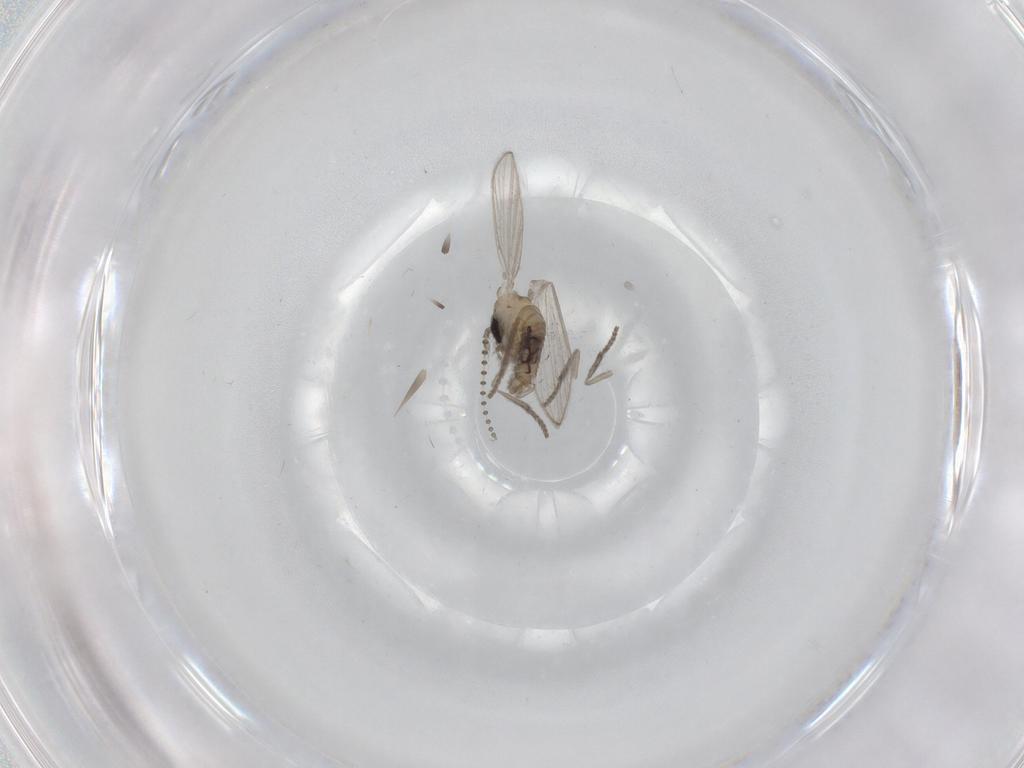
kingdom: Animalia
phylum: Arthropoda
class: Insecta
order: Diptera
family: Psychodidae
